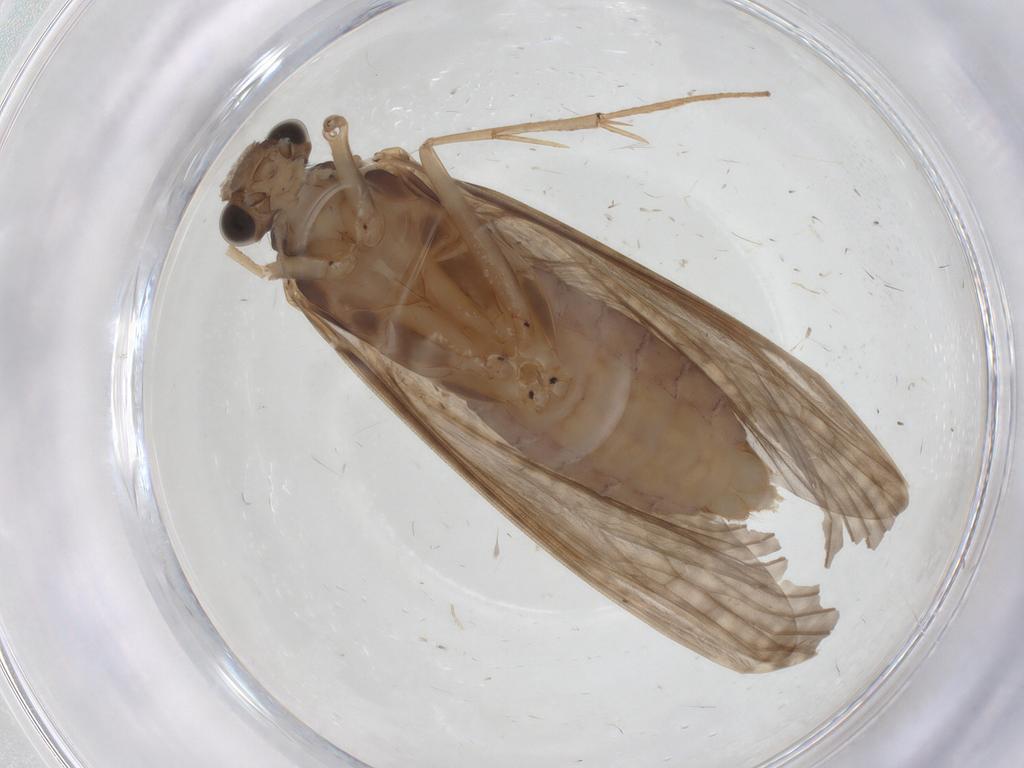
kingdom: Animalia
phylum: Arthropoda
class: Insecta
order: Trichoptera
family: Hydropsychidae
